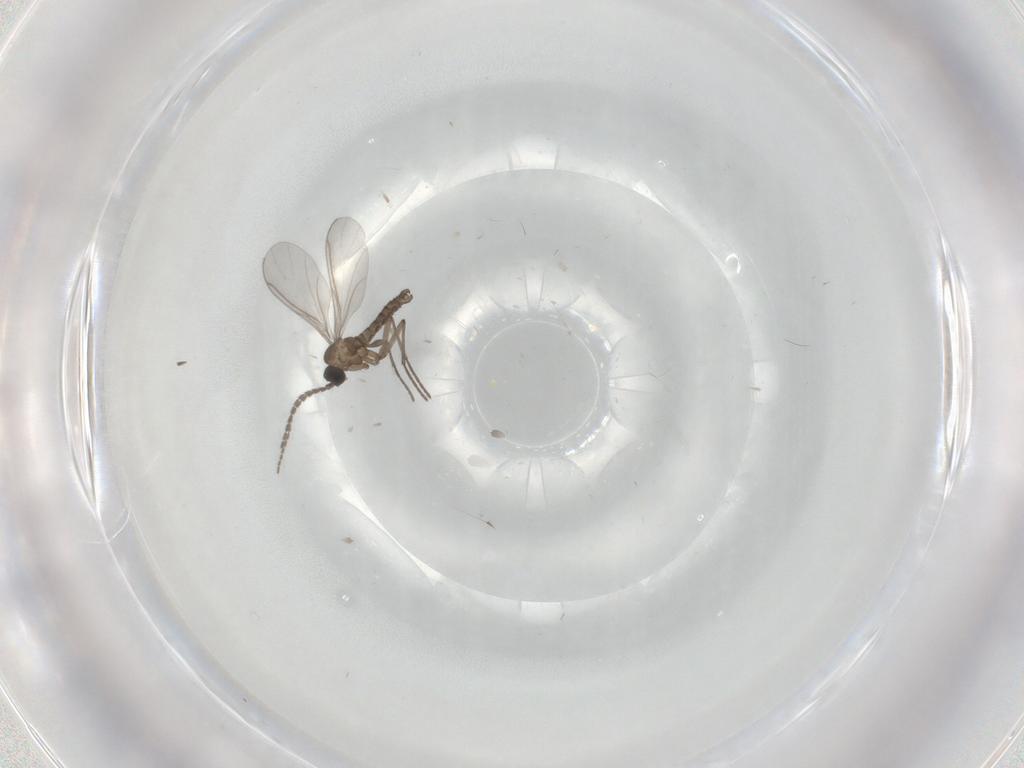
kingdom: Animalia
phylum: Arthropoda
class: Insecta
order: Diptera
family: Sciaridae
